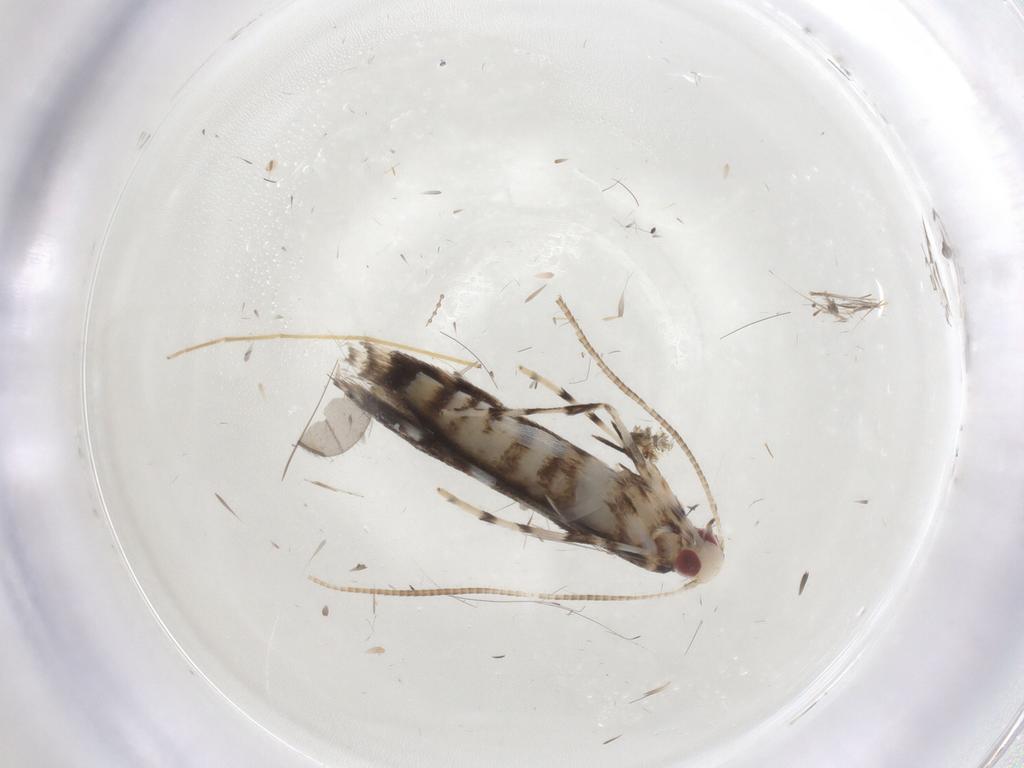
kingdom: Animalia
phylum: Arthropoda
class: Insecta
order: Lepidoptera
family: Gracillariidae
